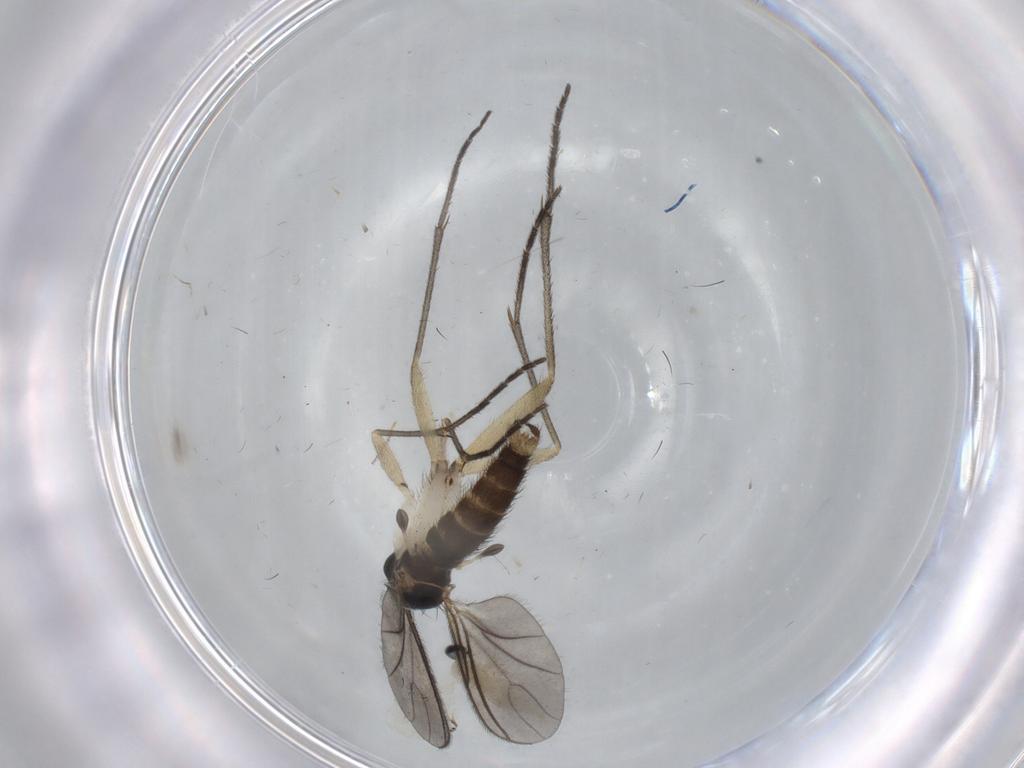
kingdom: Animalia
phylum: Arthropoda
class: Insecta
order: Diptera
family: Sciaridae
